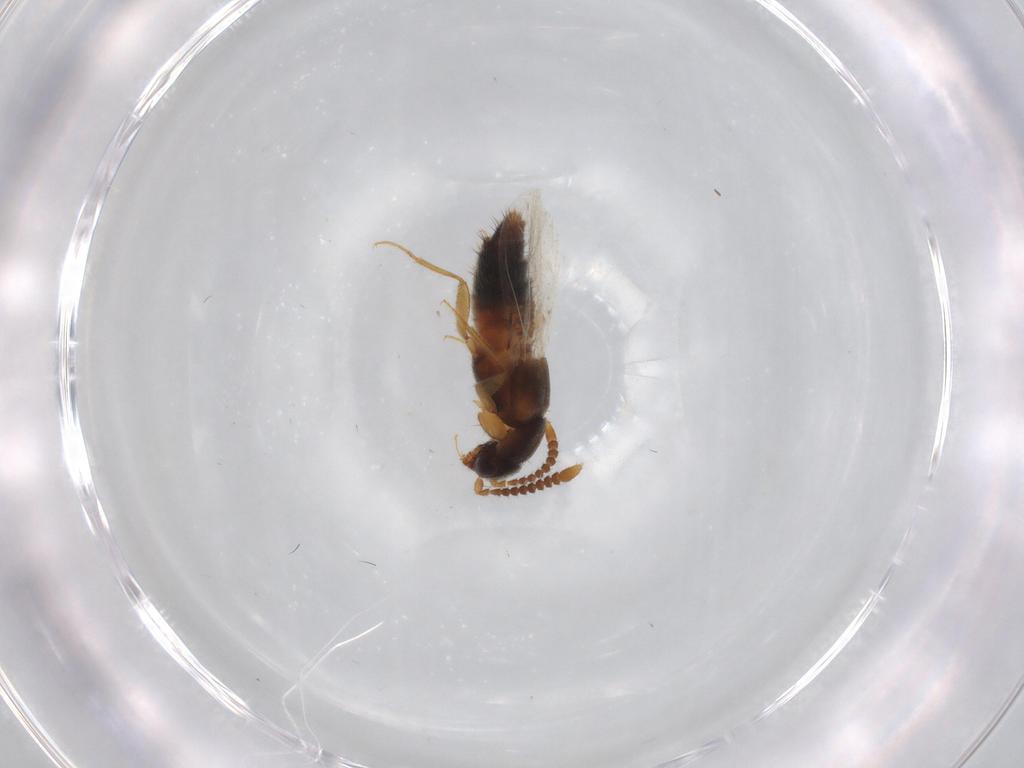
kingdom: Animalia
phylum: Arthropoda
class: Insecta
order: Coleoptera
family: Staphylinidae
